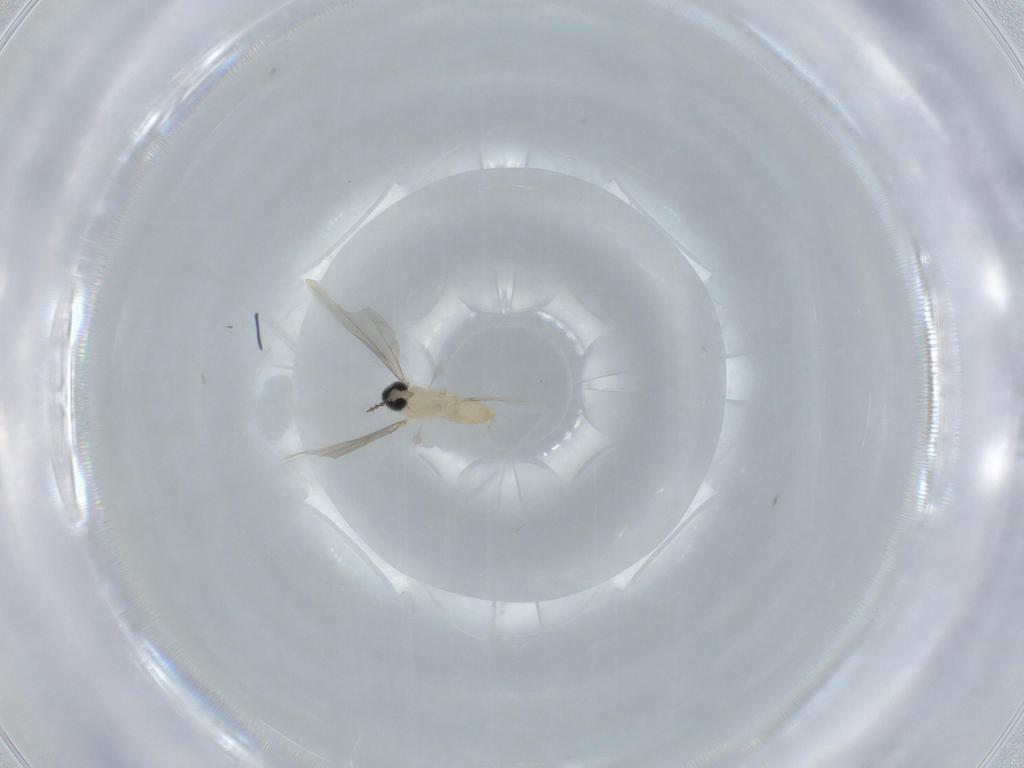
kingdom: Animalia
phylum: Arthropoda
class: Insecta
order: Diptera
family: Cecidomyiidae
